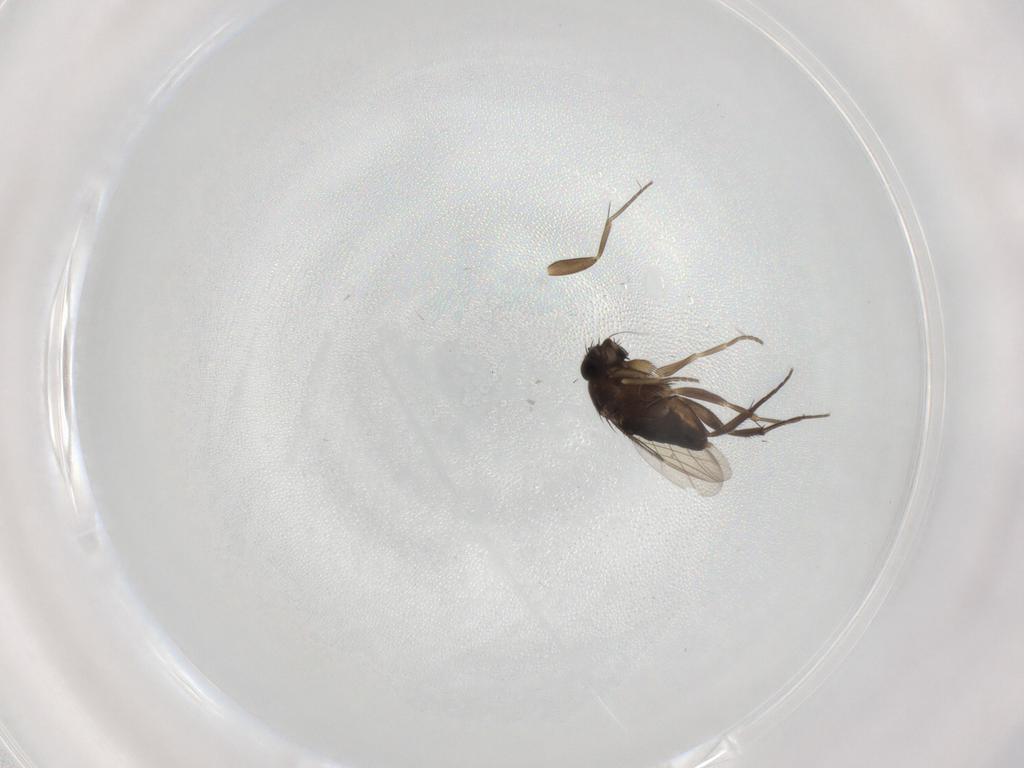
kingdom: Animalia
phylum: Arthropoda
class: Insecta
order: Diptera
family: Phoridae
